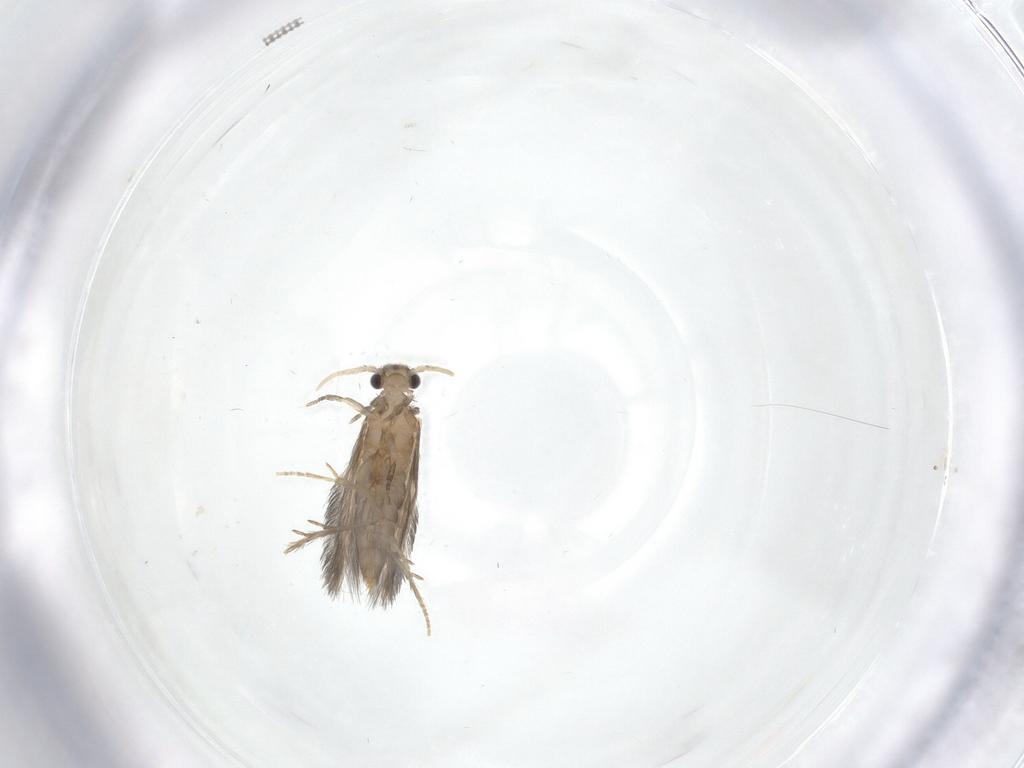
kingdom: Animalia
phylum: Arthropoda
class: Insecta
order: Trichoptera
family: Hydroptilidae
